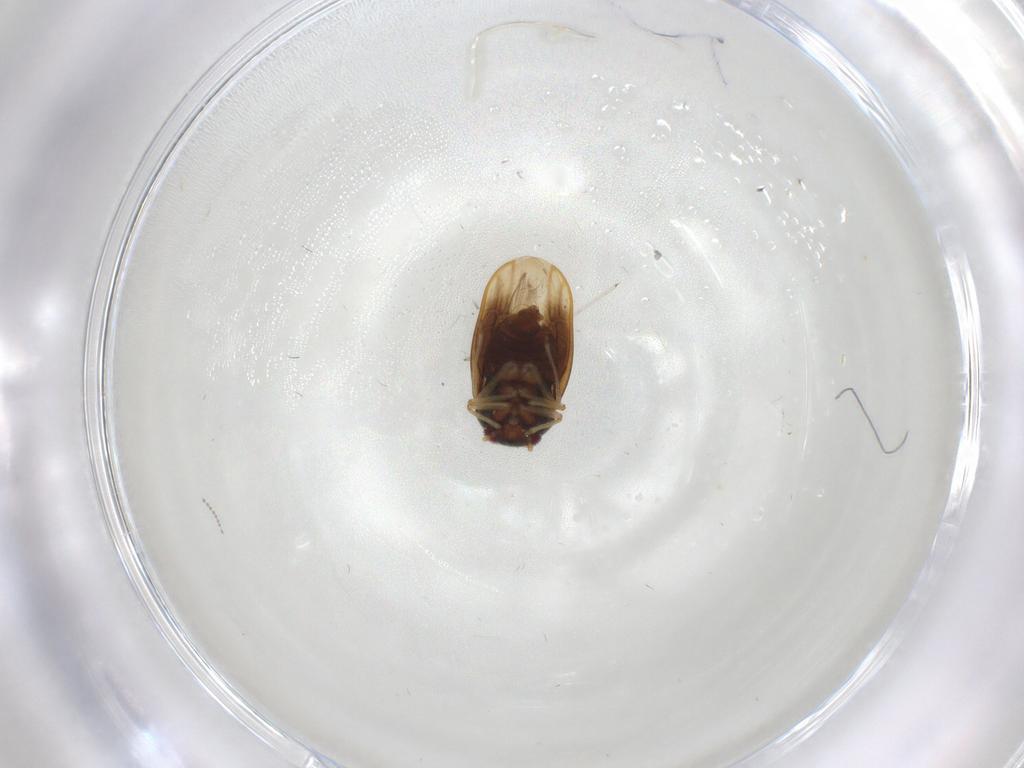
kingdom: Animalia
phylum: Arthropoda
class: Insecta
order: Hemiptera
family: Schizopteridae
